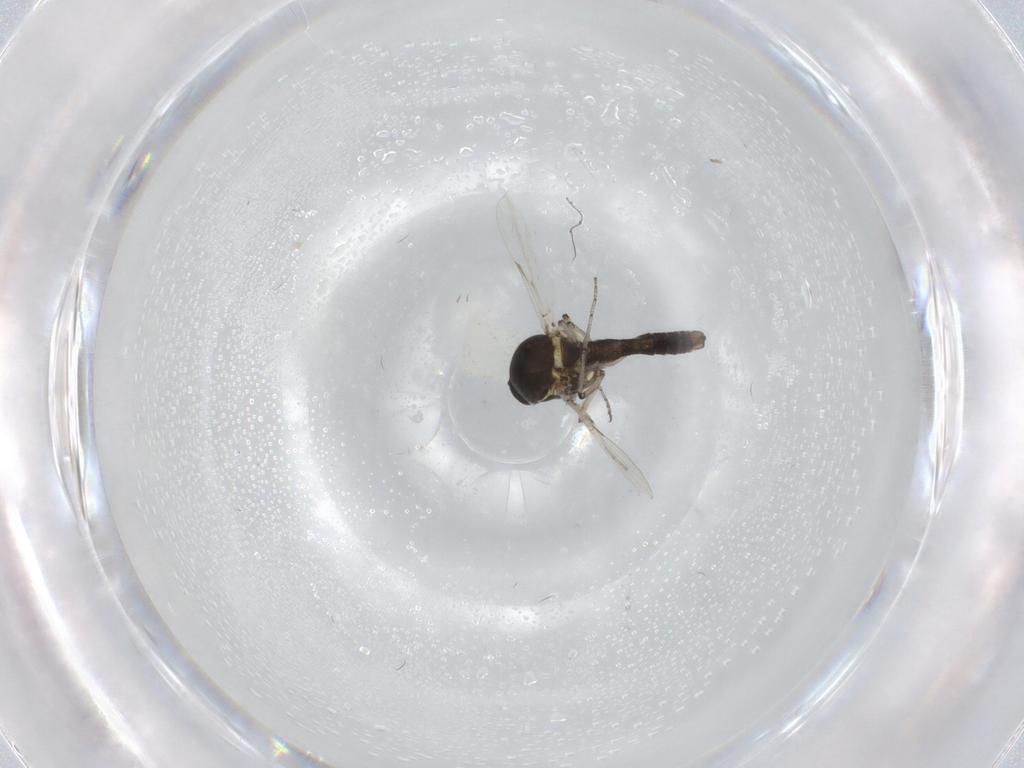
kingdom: Animalia
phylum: Arthropoda
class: Insecta
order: Diptera
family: Ceratopogonidae
